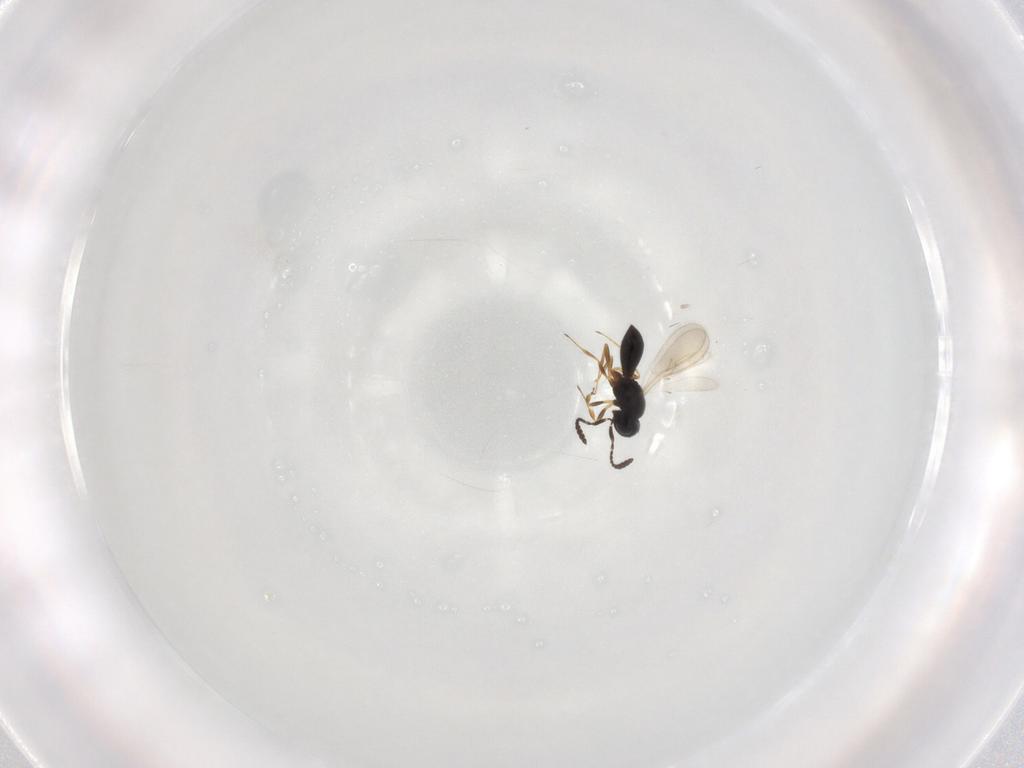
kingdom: Animalia
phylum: Arthropoda
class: Insecta
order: Hymenoptera
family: Scelionidae
